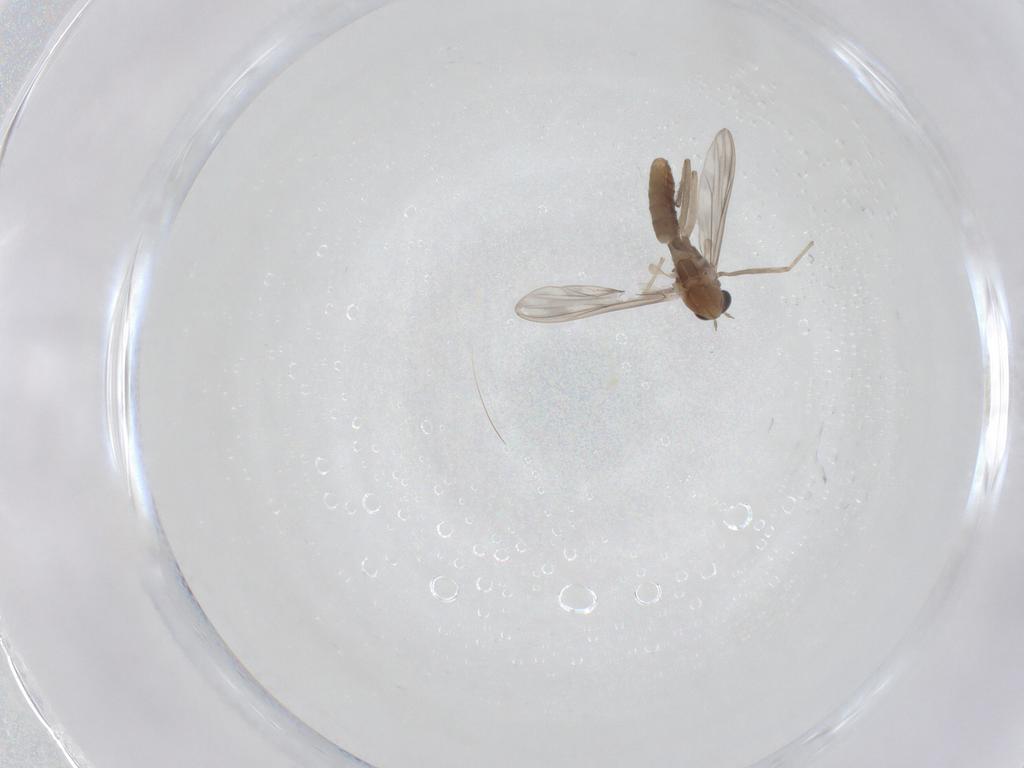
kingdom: Animalia
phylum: Arthropoda
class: Insecta
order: Diptera
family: Chironomidae
